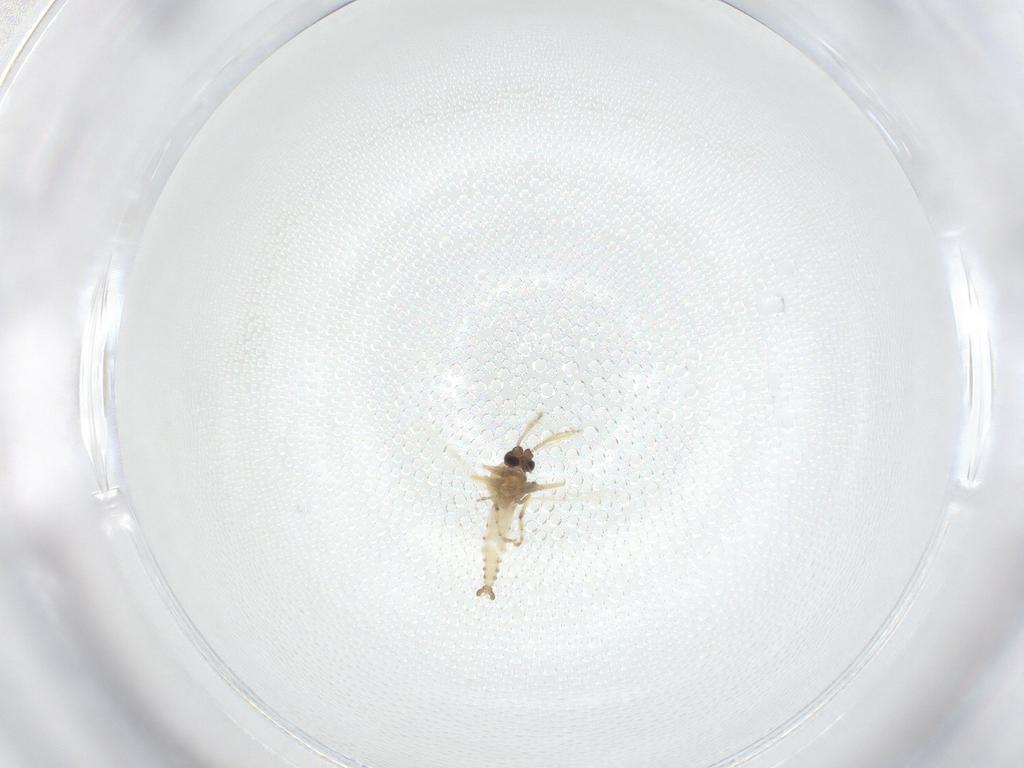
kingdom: Animalia
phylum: Arthropoda
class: Insecta
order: Diptera
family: Ceratopogonidae
